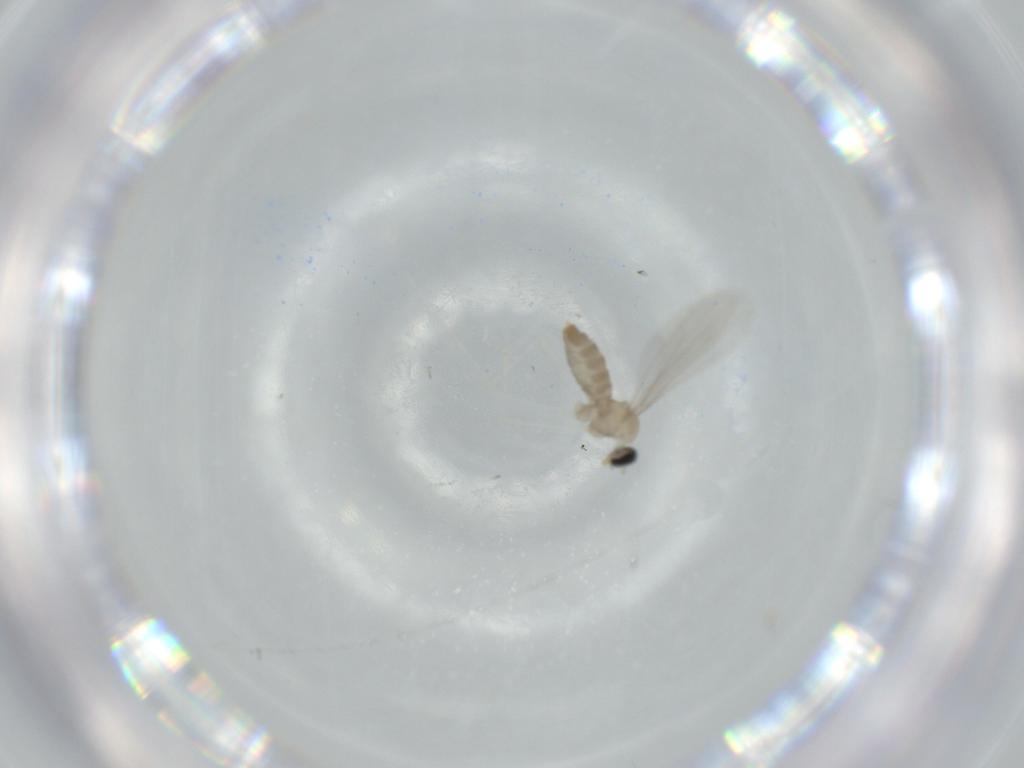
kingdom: Animalia
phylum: Arthropoda
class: Insecta
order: Diptera
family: Cecidomyiidae
